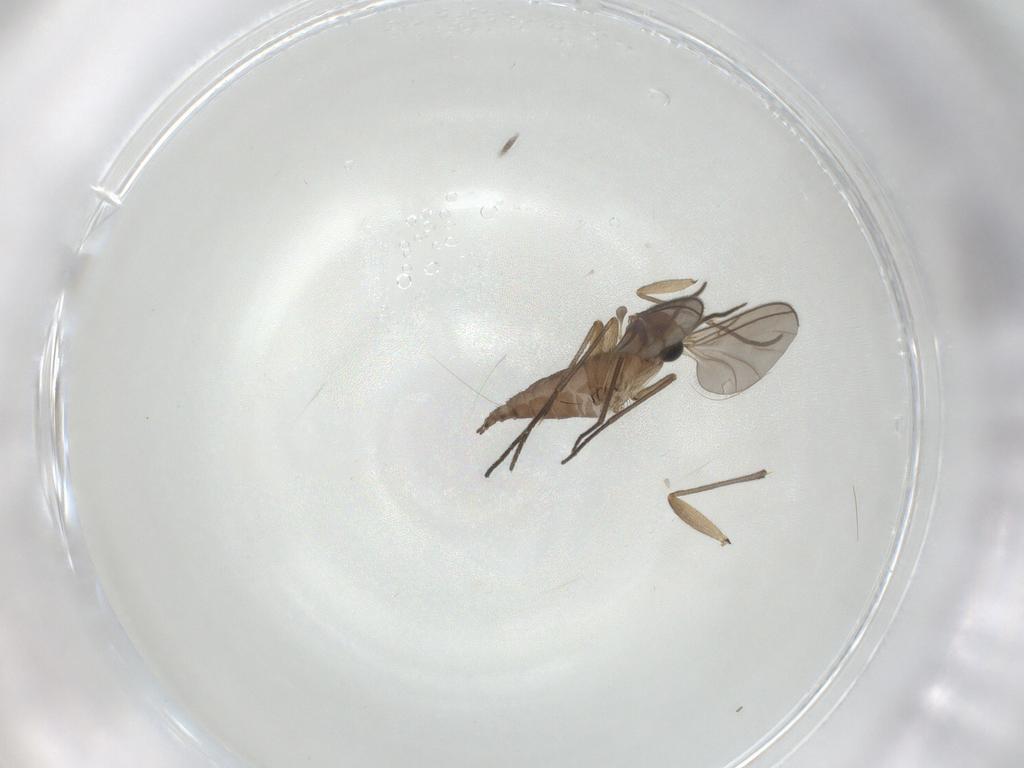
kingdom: Animalia
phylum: Arthropoda
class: Insecta
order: Diptera
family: Sciaridae
